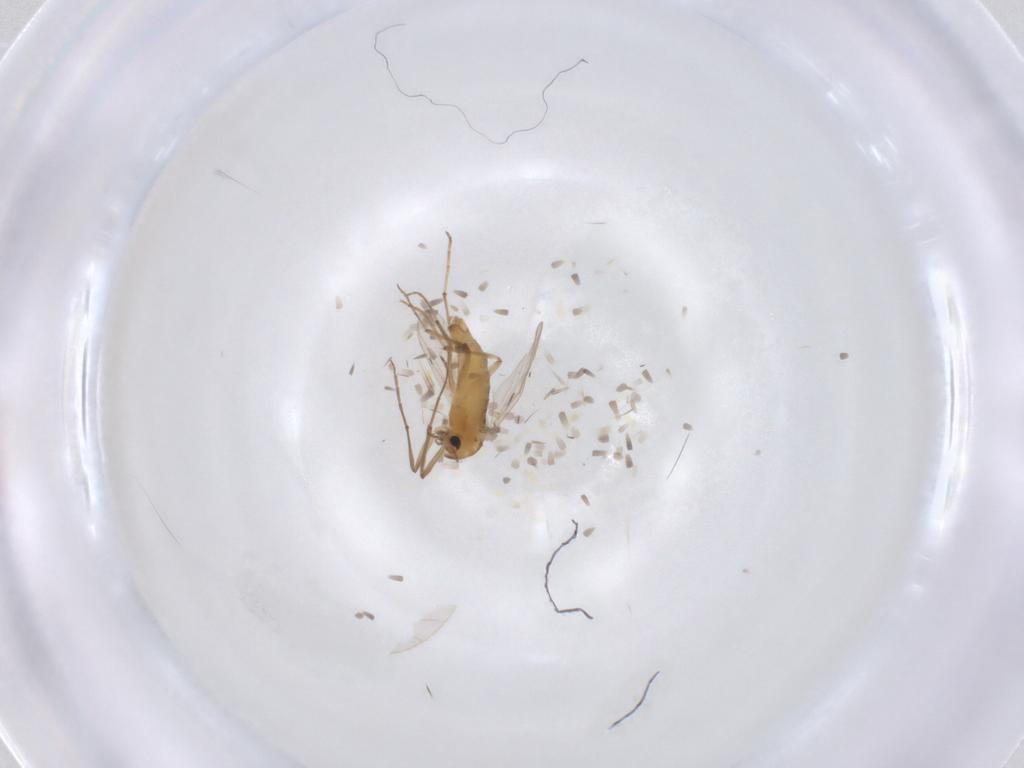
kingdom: Animalia
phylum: Arthropoda
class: Insecta
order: Diptera
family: Chironomidae
